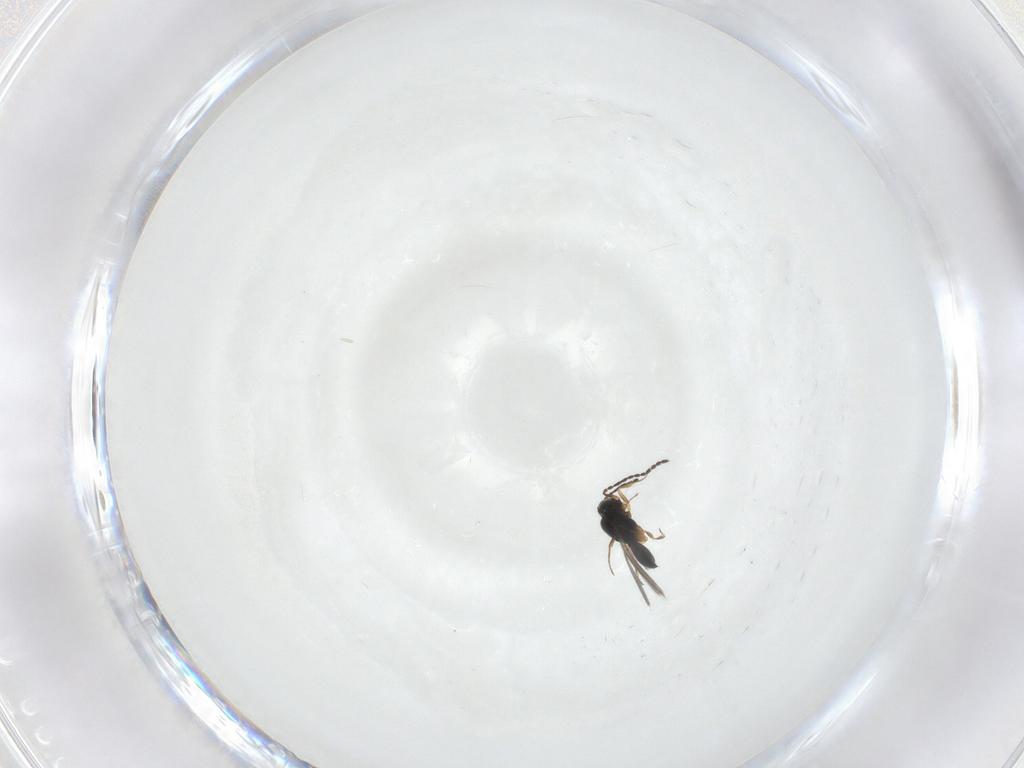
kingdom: Animalia
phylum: Arthropoda
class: Insecta
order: Hymenoptera
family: Scelionidae
